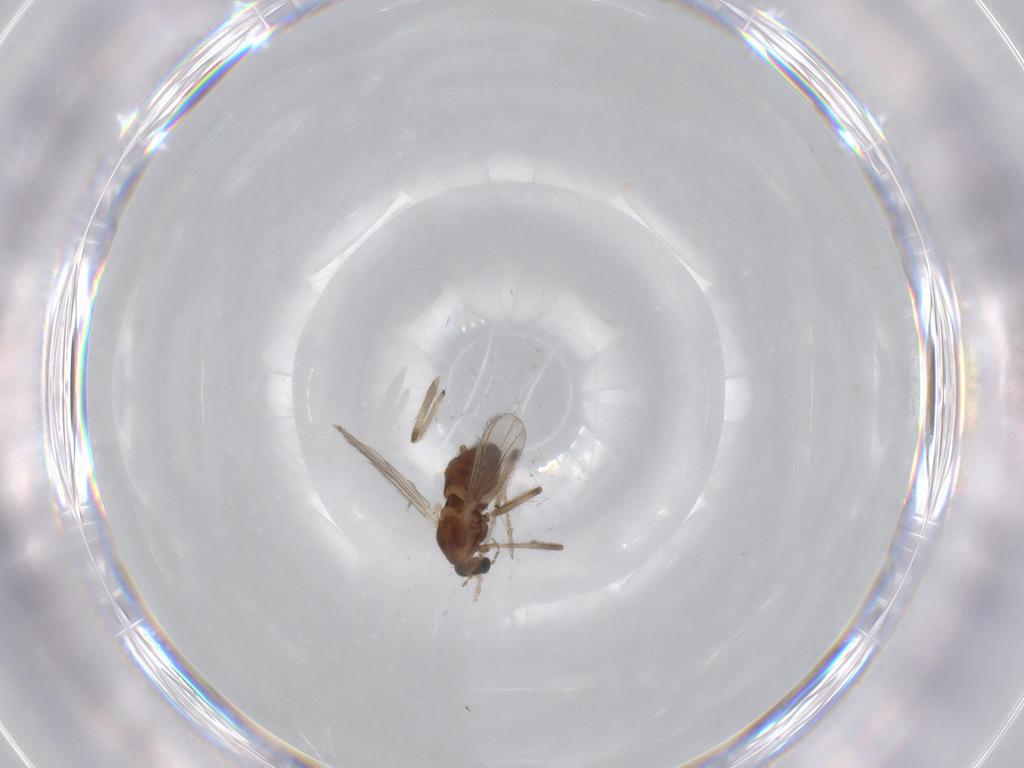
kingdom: Animalia
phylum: Arthropoda
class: Insecta
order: Diptera
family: Chironomidae
